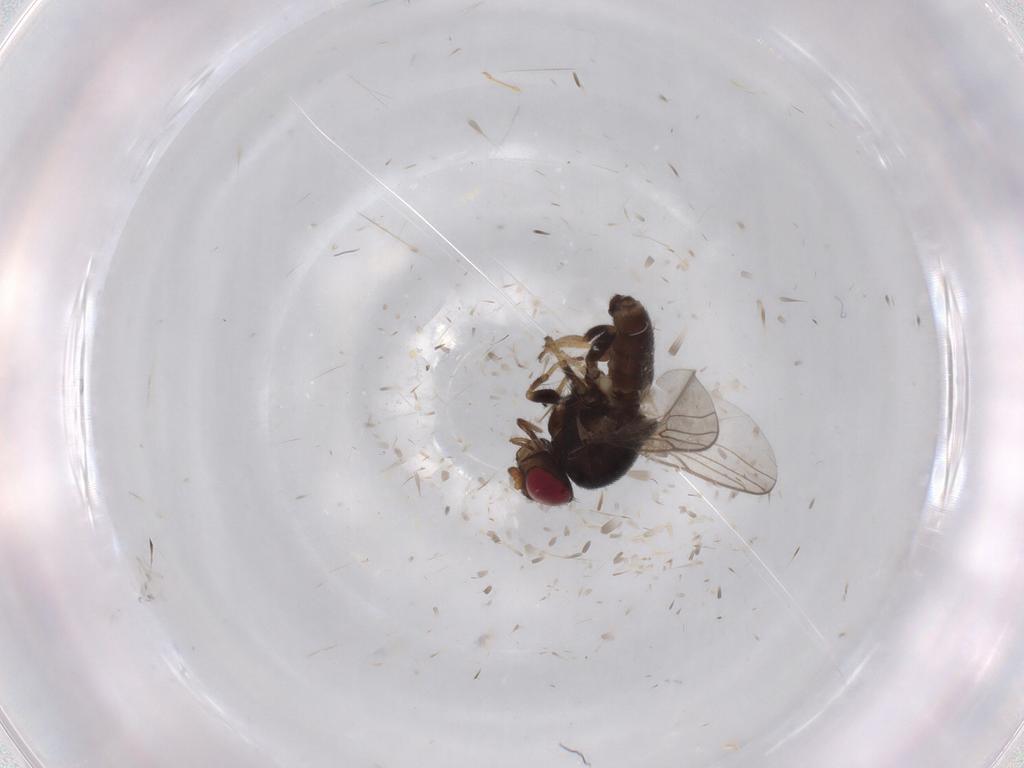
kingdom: Animalia
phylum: Arthropoda
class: Insecta
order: Diptera
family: Chloropidae
